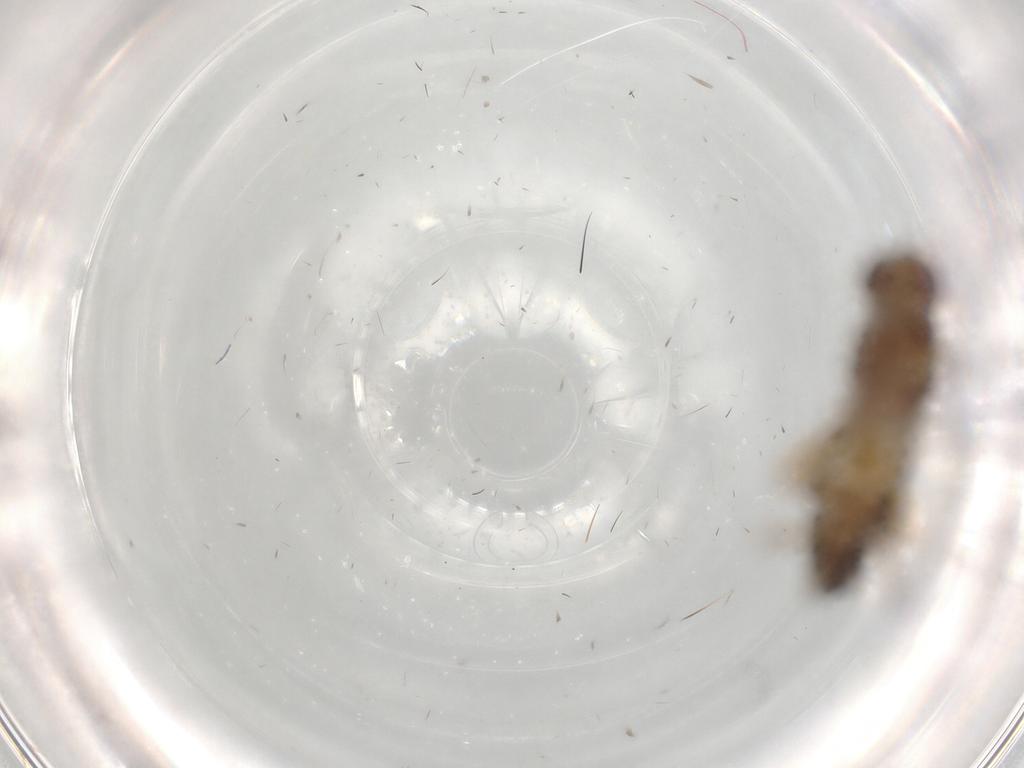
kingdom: Animalia
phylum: Arthropoda
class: Insecta
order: Diptera
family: Drosophilidae
